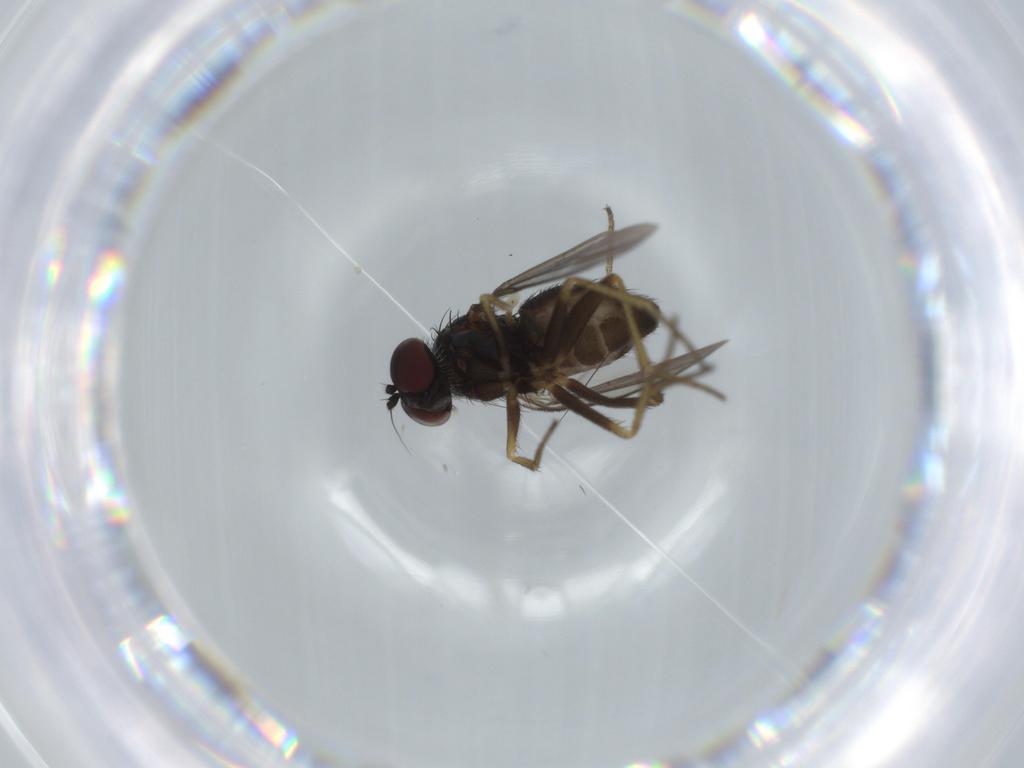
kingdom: Animalia
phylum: Arthropoda
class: Insecta
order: Diptera
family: Dolichopodidae
